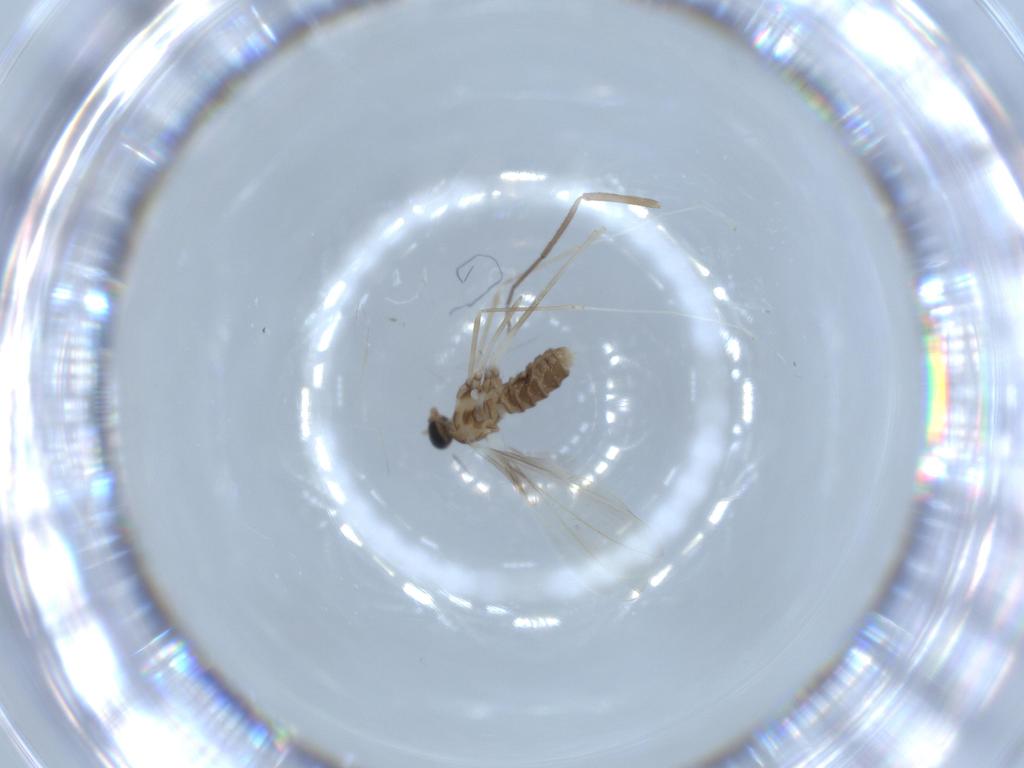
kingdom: Animalia
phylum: Arthropoda
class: Insecta
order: Diptera
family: Cecidomyiidae
